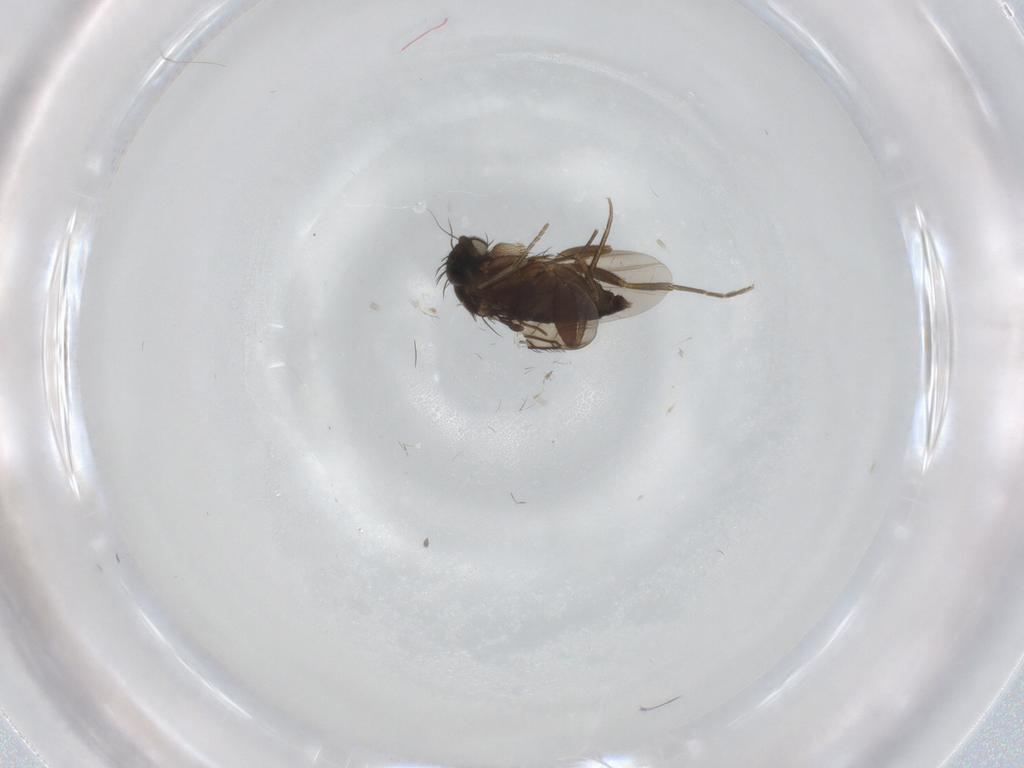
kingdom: Animalia
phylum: Arthropoda
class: Insecta
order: Diptera
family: Phoridae
